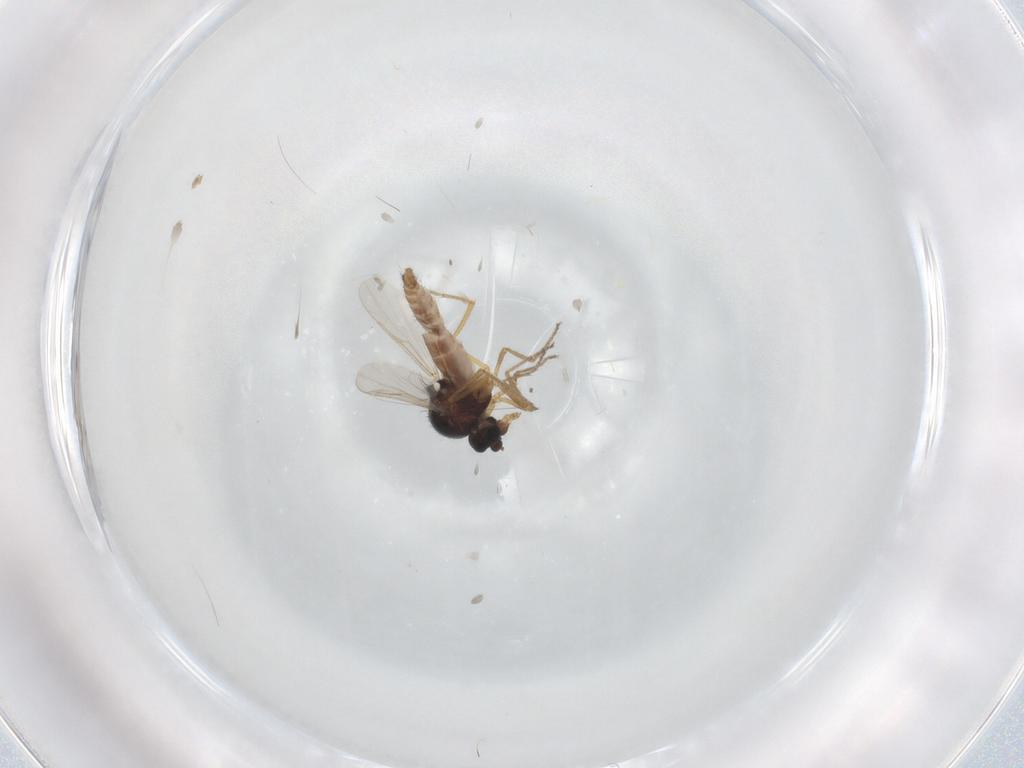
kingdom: Animalia
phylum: Arthropoda
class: Insecta
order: Diptera
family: Ceratopogonidae
